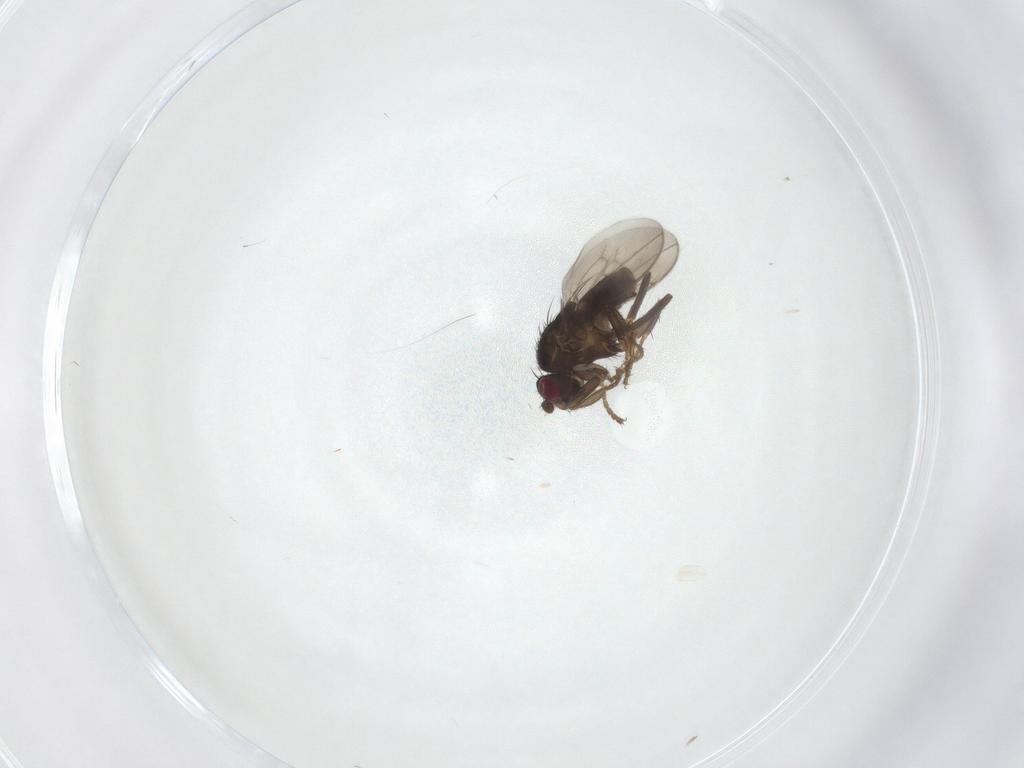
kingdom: Animalia
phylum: Arthropoda
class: Insecta
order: Diptera
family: Sphaeroceridae
